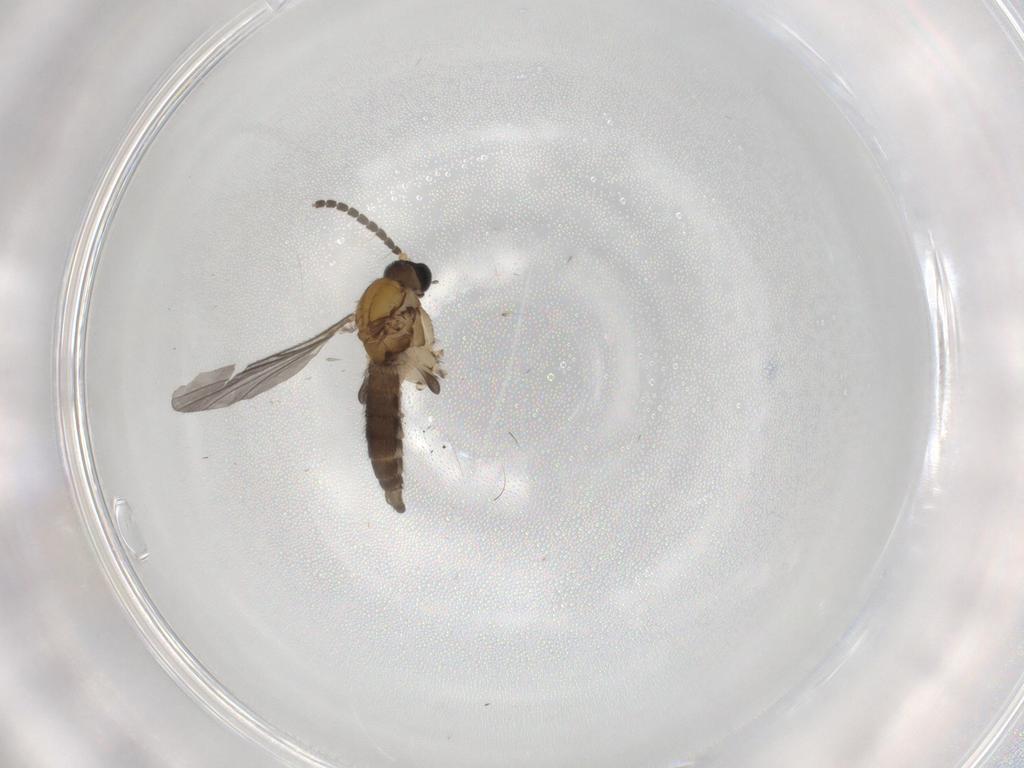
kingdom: Animalia
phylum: Arthropoda
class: Insecta
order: Diptera
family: Sciaridae
